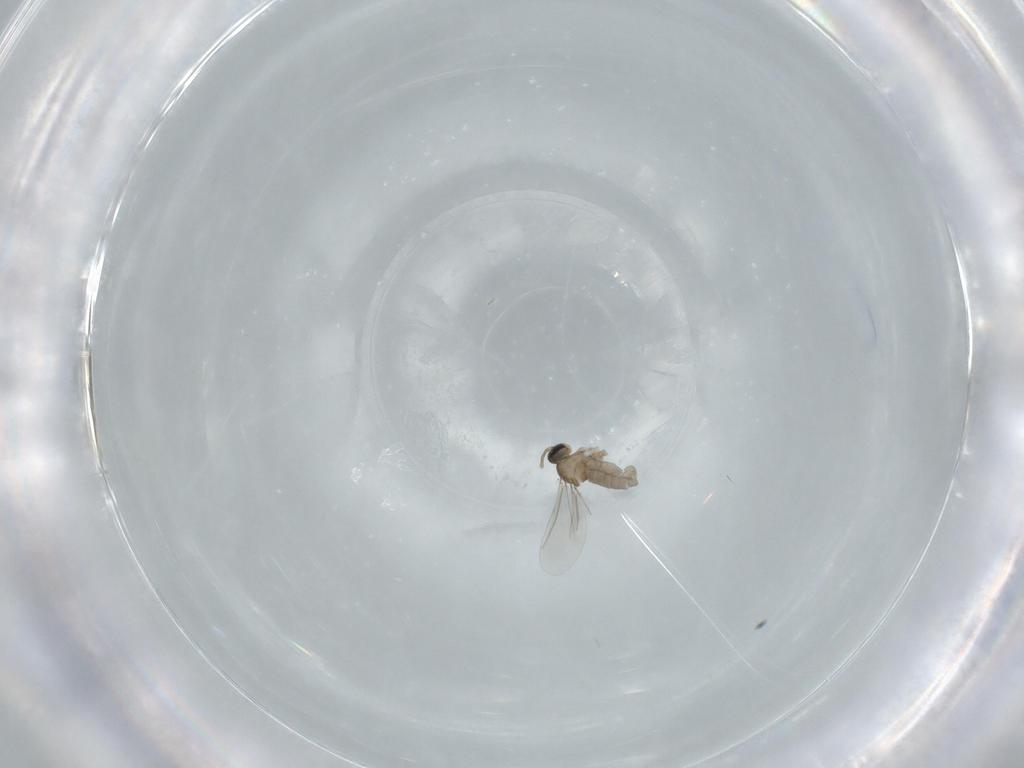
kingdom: Animalia
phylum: Arthropoda
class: Insecta
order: Diptera
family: Cecidomyiidae
